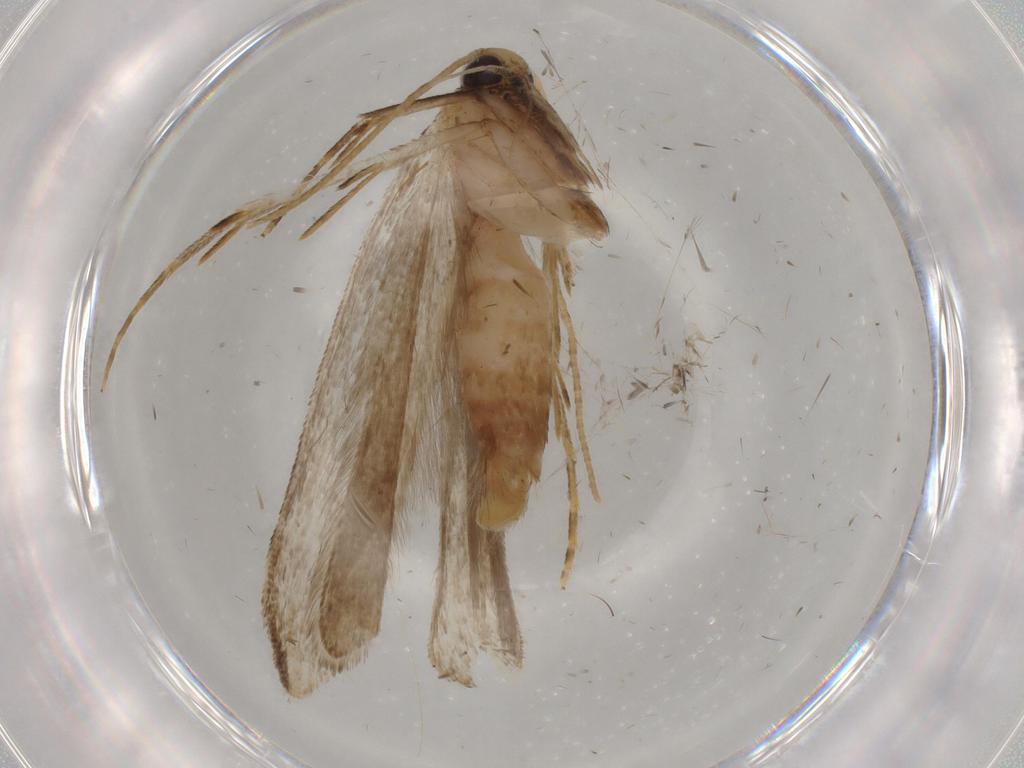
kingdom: Animalia
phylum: Arthropoda
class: Insecta
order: Lepidoptera
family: Gelechiidae
